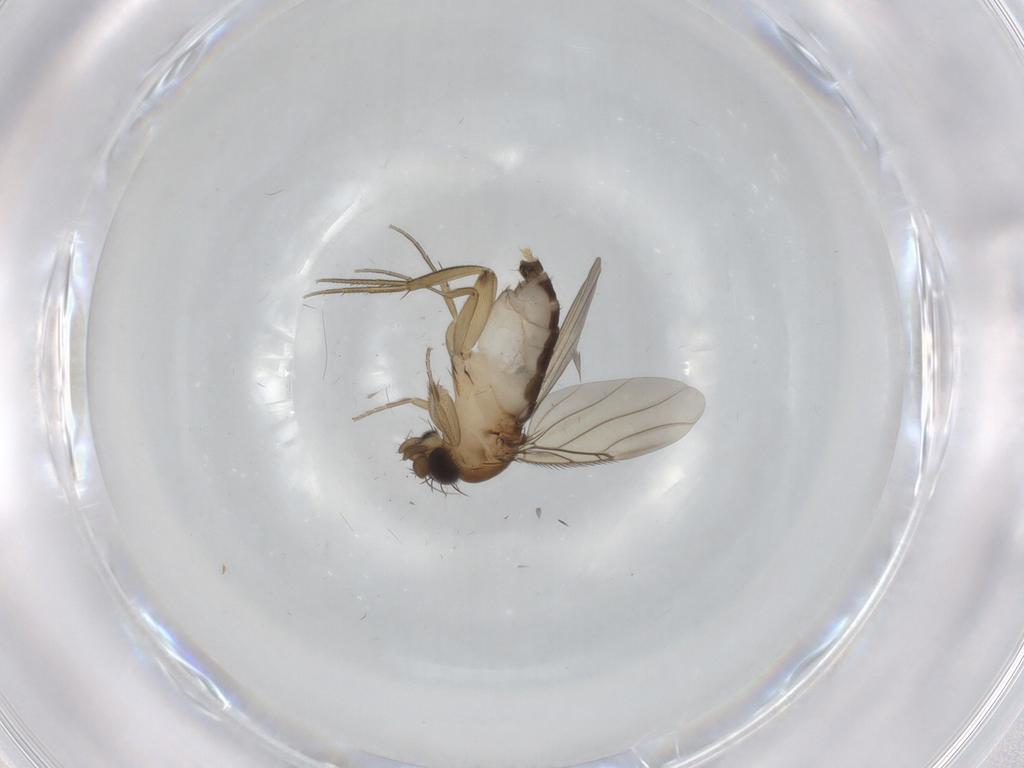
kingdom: Animalia
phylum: Arthropoda
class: Insecta
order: Diptera
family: Phoridae
